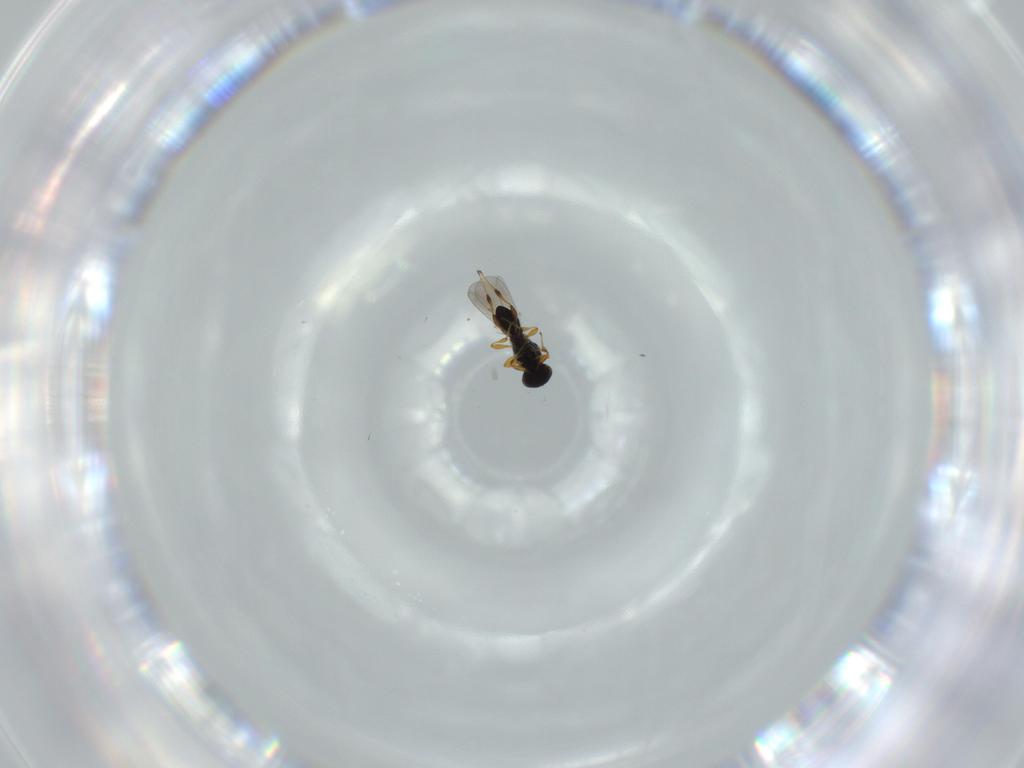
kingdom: Animalia
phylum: Arthropoda
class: Insecta
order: Hymenoptera
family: Platygastridae
